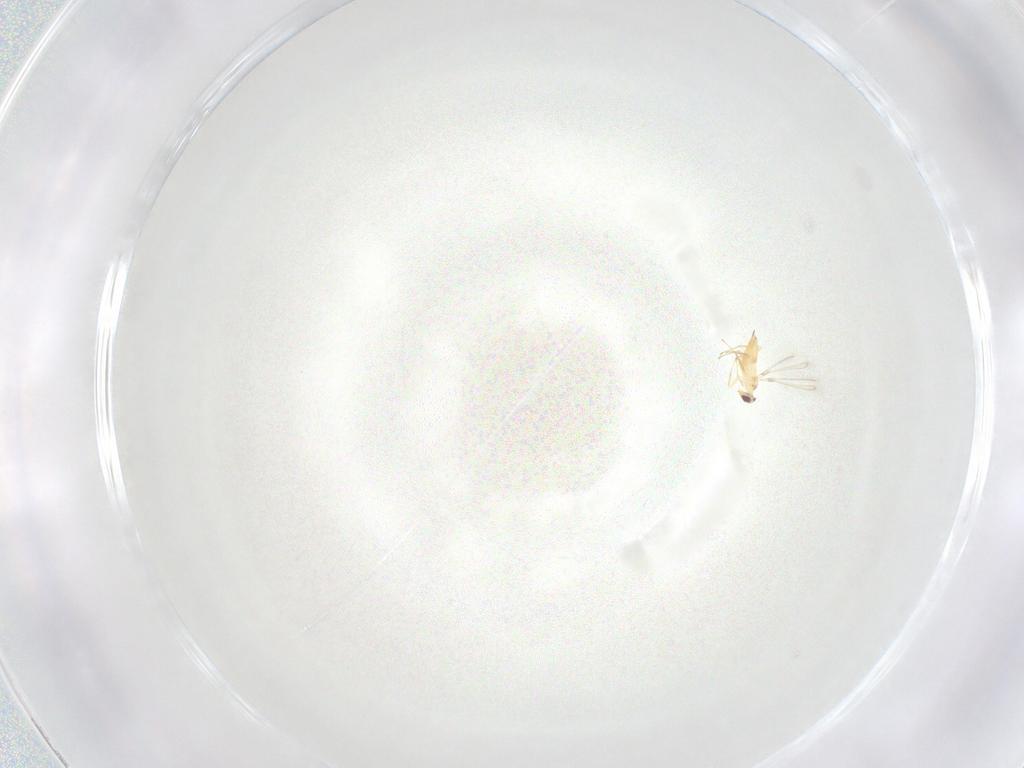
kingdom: Animalia
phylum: Arthropoda
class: Insecta
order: Hymenoptera
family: Mymaridae
